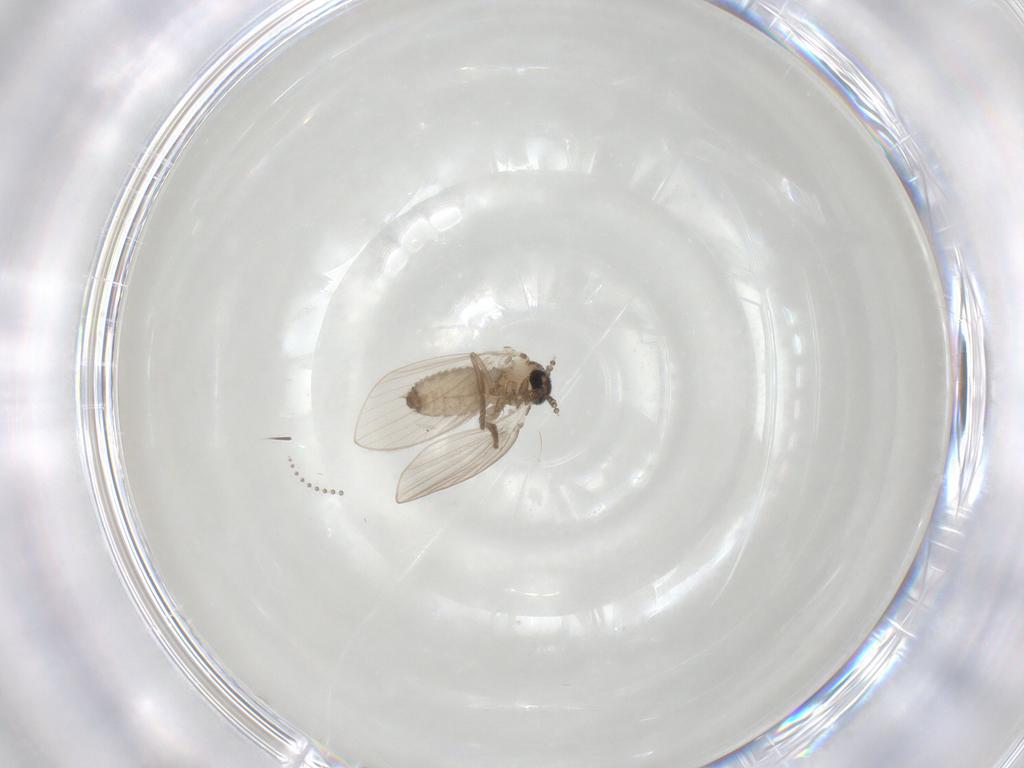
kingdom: Animalia
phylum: Arthropoda
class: Insecta
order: Diptera
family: Psychodidae
